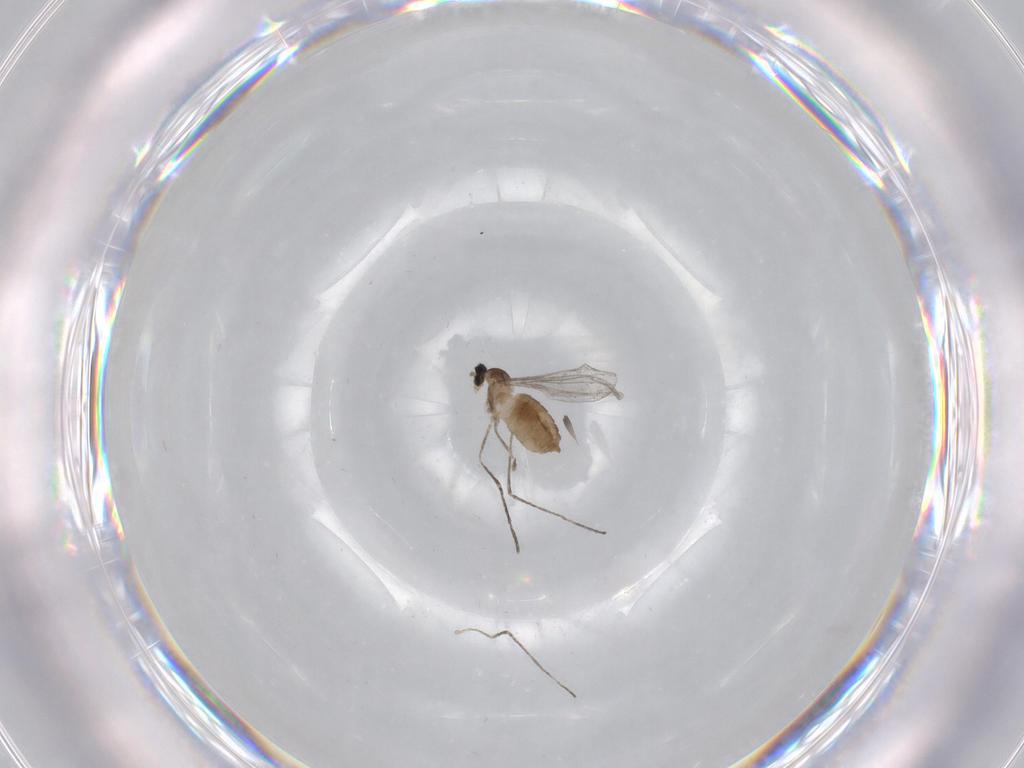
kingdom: Animalia
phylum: Arthropoda
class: Insecta
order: Diptera
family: Cecidomyiidae
